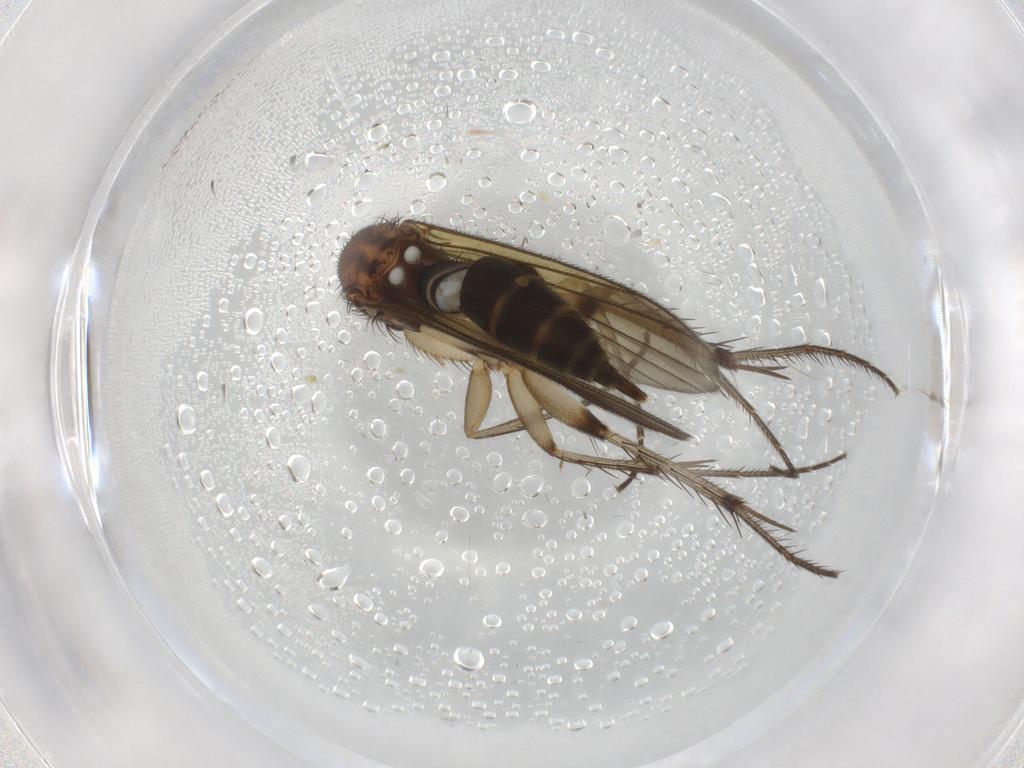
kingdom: Animalia
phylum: Arthropoda
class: Insecta
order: Diptera
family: Mycetophilidae
